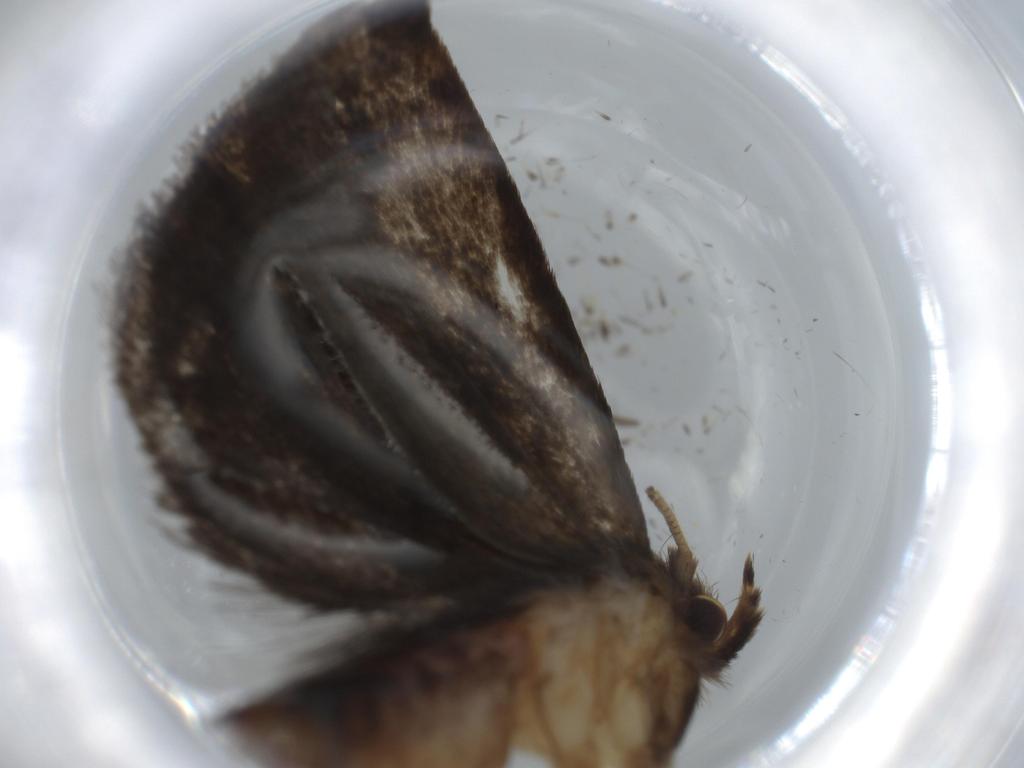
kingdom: Animalia
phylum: Arthropoda
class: Insecta
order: Lepidoptera
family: Tineidae
